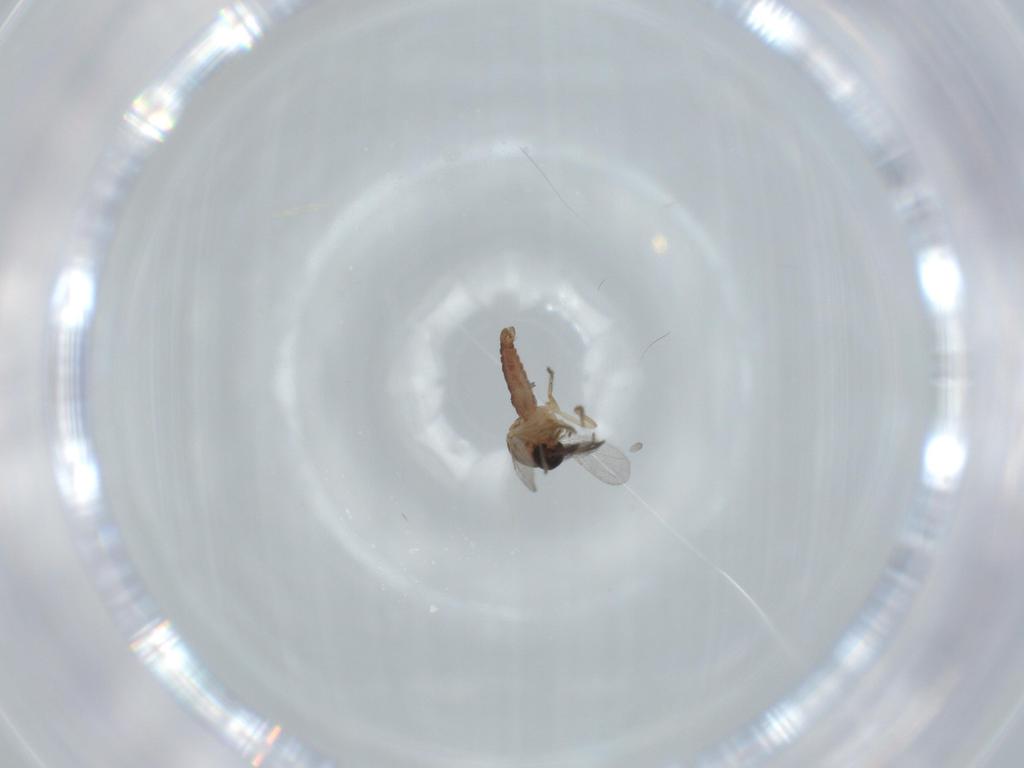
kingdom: Animalia
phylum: Arthropoda
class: Insecta
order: Diptera
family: Ceratopogonidae
